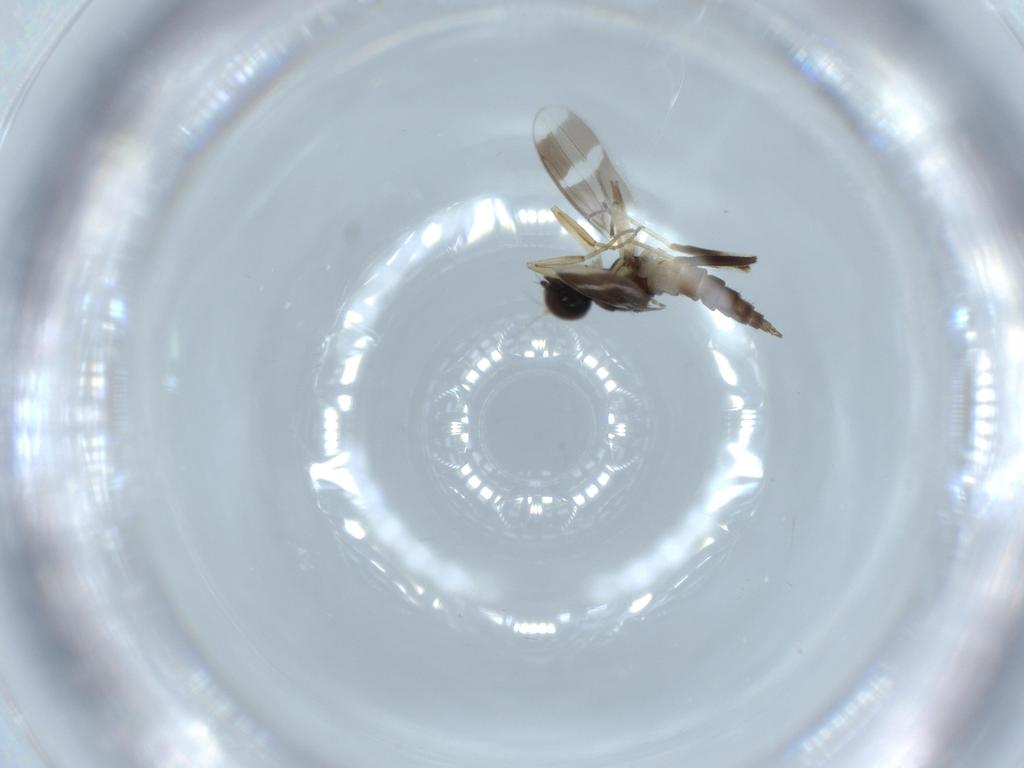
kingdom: Animalia
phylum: Arthropoda
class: Insecta
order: Diptera
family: Hybotidae
